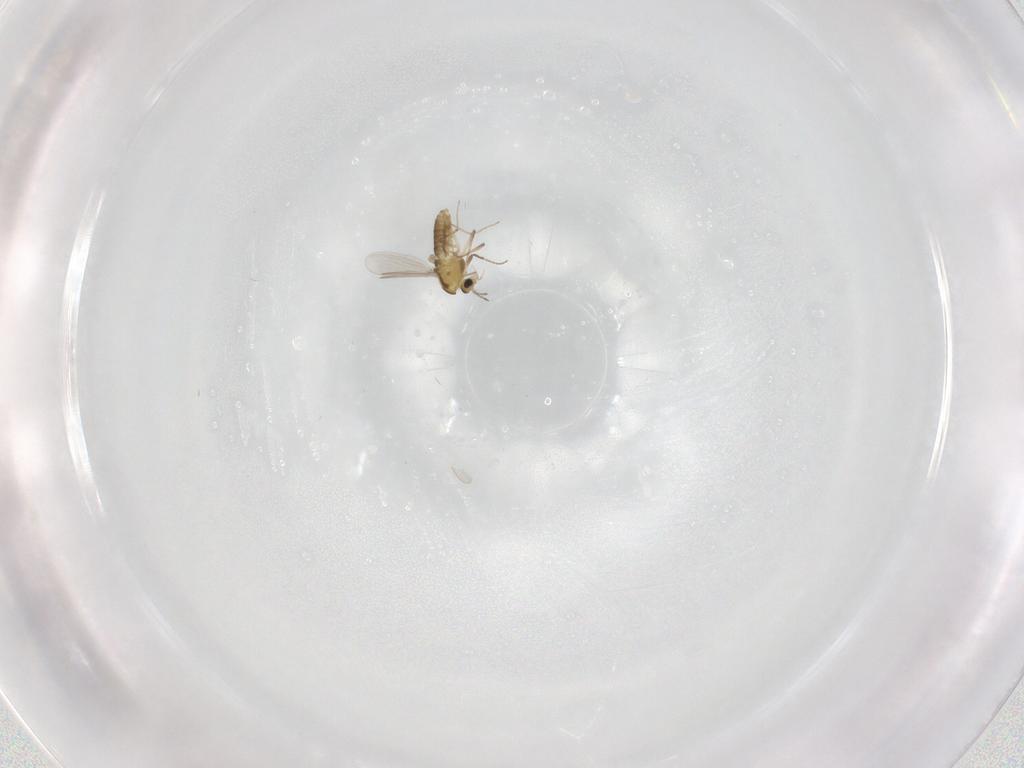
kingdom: Animalia
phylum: Arthropoda
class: Insecta
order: Diptera
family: Chironomidae
